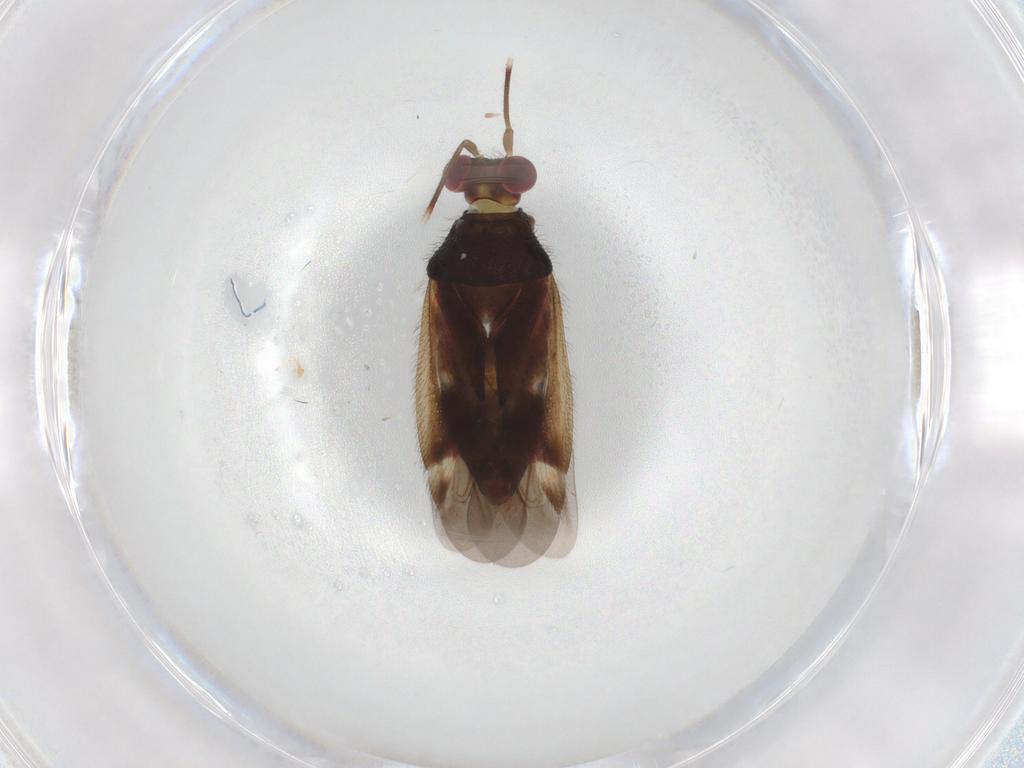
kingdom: Animalia
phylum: Arthropoda
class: Insecta
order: Hemiptera
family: Miridae
